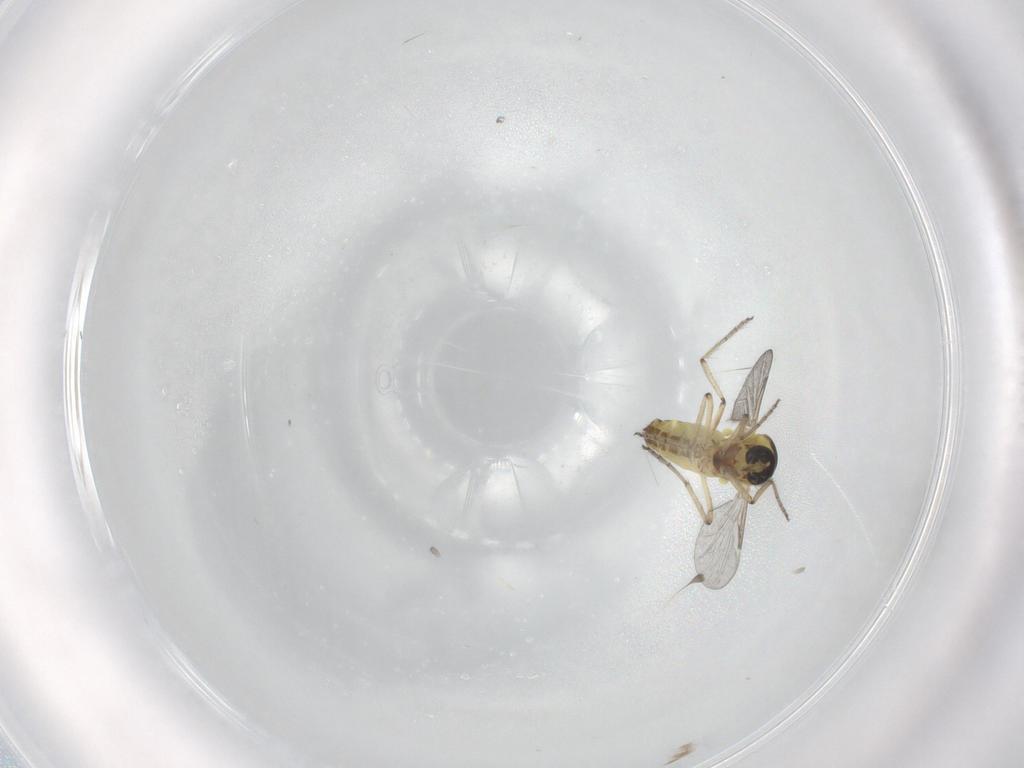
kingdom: Animalia
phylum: Arthropoda
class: Insecta
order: Diptera
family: Ceratopogonidae
